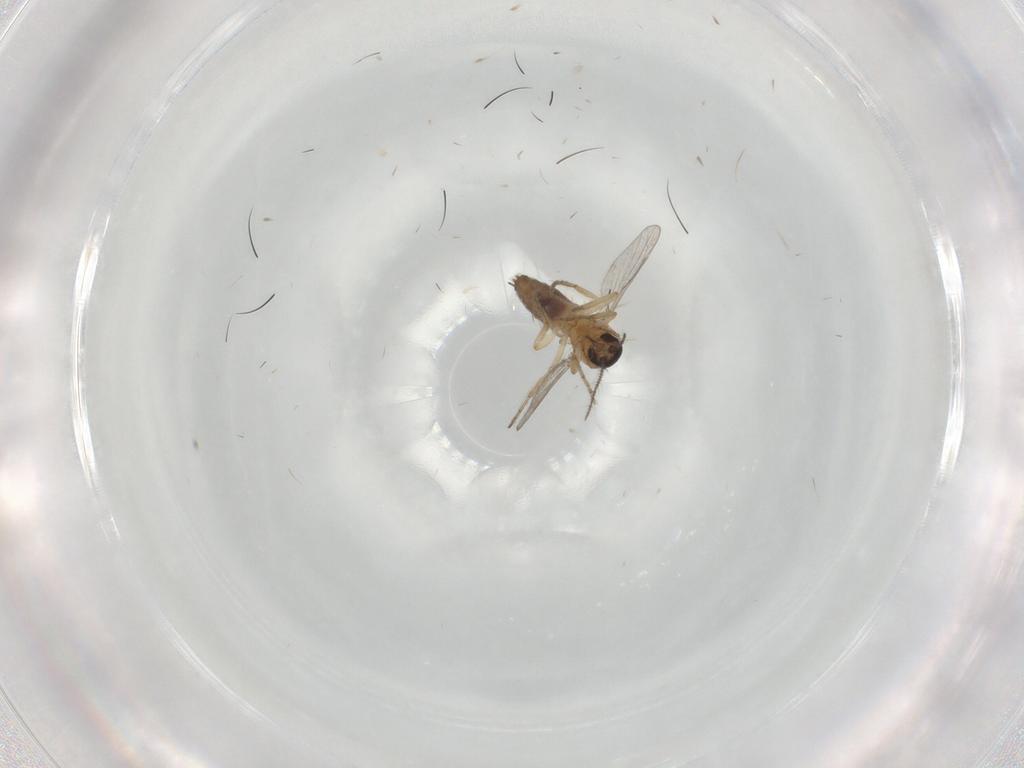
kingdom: Animalia
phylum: Arthropoda
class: Insecta
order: Diptera
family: Ceratopogonidae
